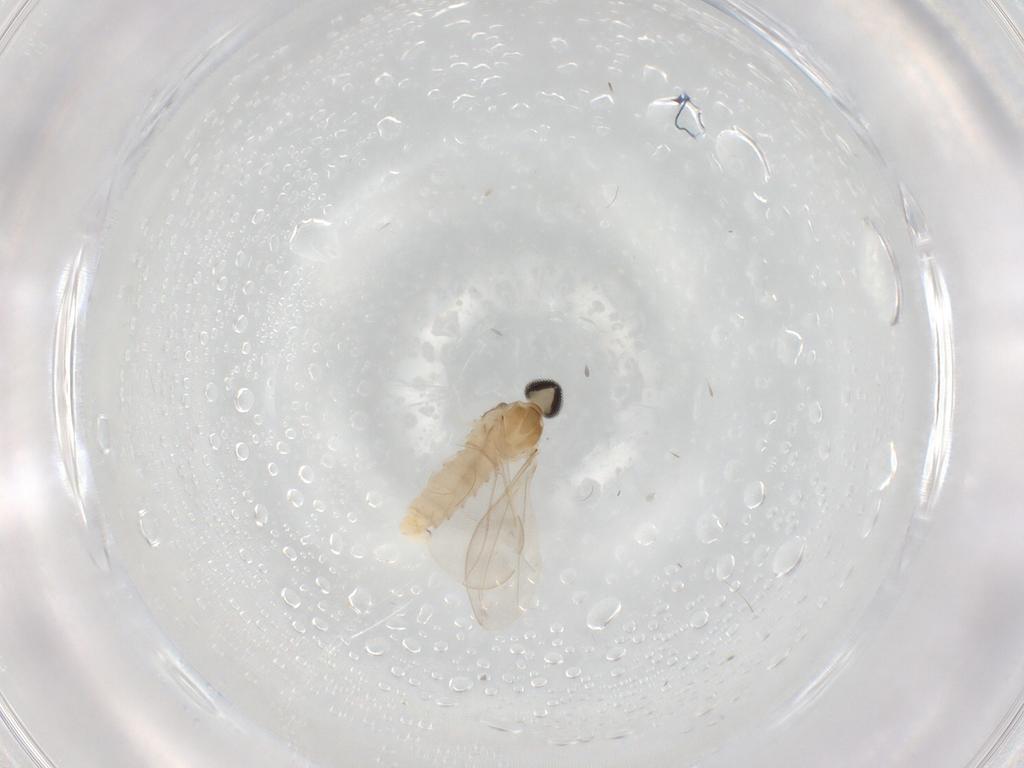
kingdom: Animalia
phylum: Arthropoda
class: Insecta
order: Diptera
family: Cecidomyiidae
